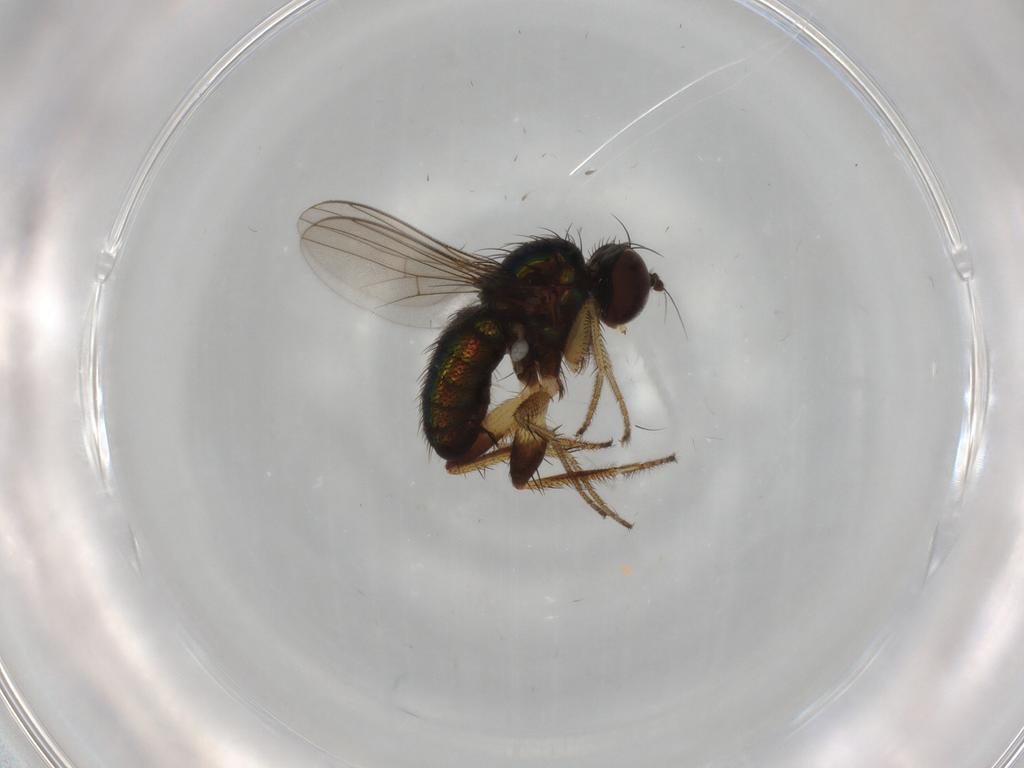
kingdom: Animalia
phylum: Arthropoda
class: Insecta
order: Diptera
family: Dolichopodidae
